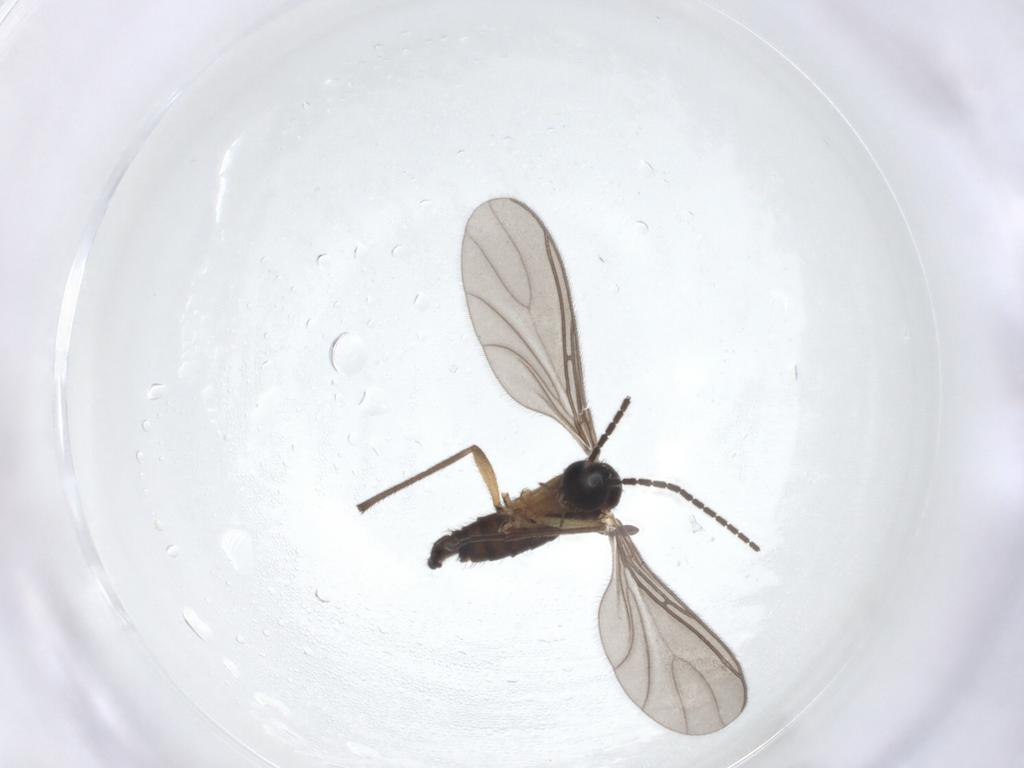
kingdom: Animalia
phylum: Arthropoda
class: Insecta
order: Diptera
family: Sciaridae
